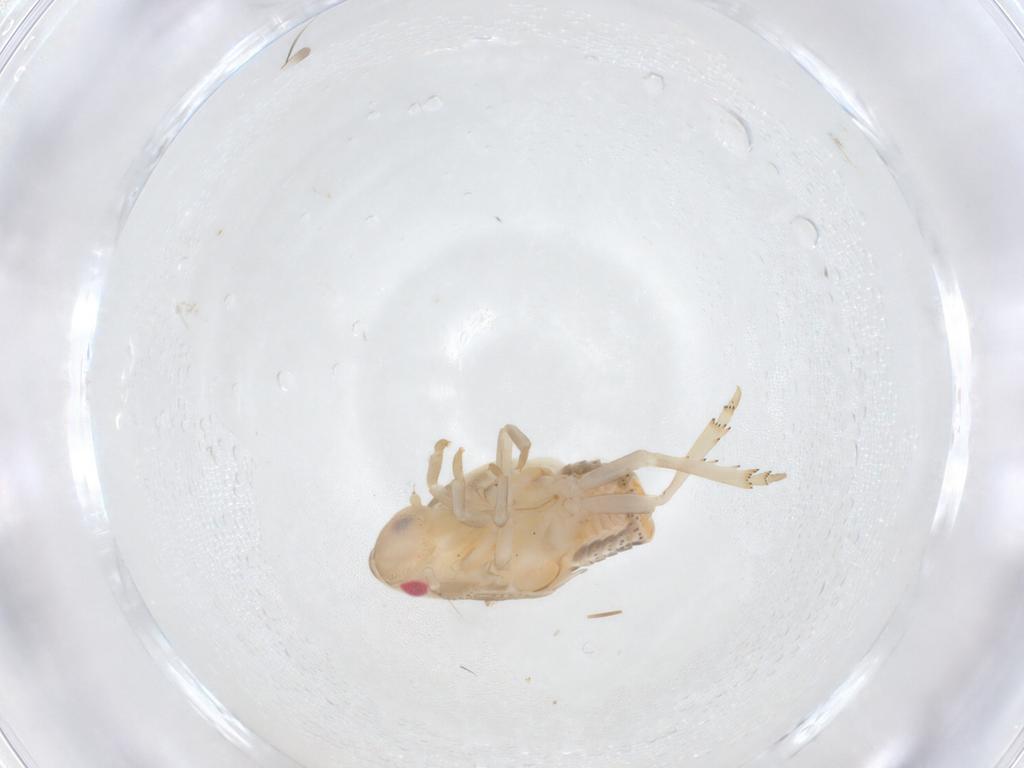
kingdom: Animalia
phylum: Arthropoda
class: Insecta
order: Hemiptera
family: Flatidae
